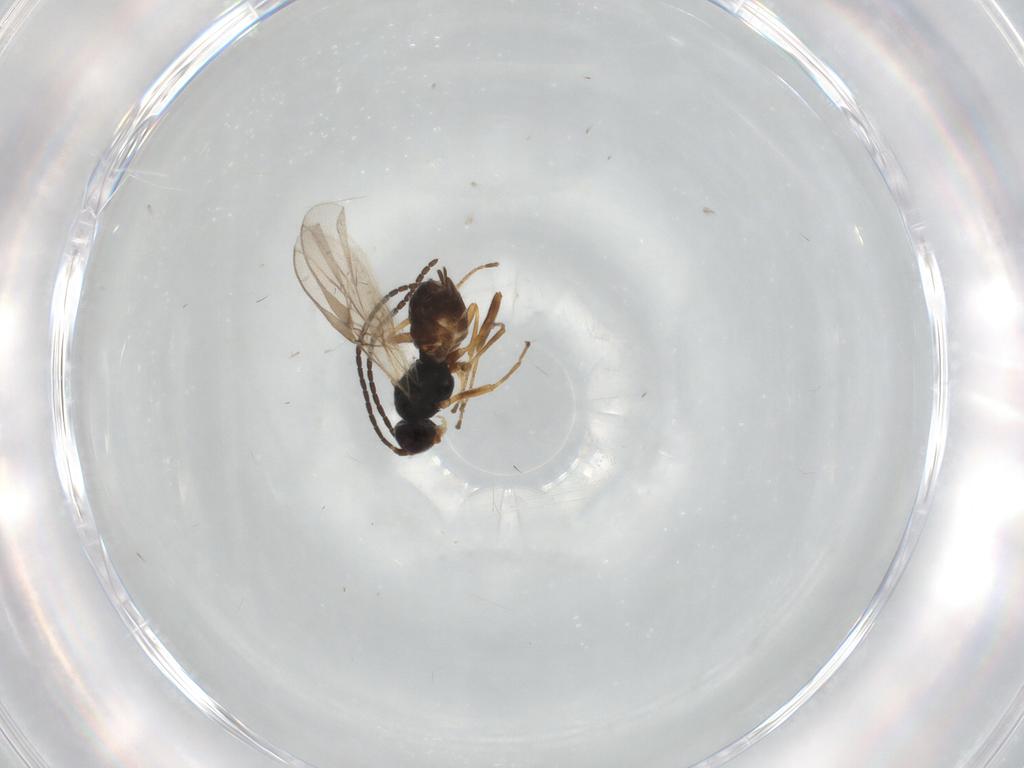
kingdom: Animalia
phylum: Arthropoda
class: Insecta
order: Hymenoptera
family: Braconidae
